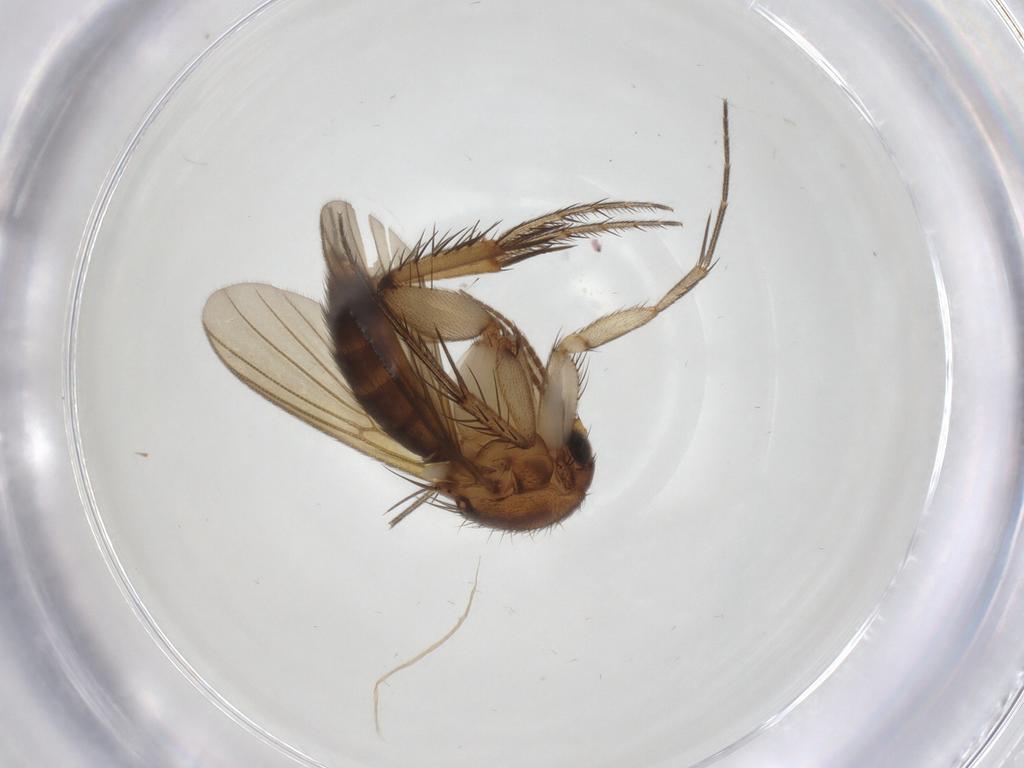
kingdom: Animalia
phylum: Arthropoda
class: Insecta
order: Diptera
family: Mycetophilidae
